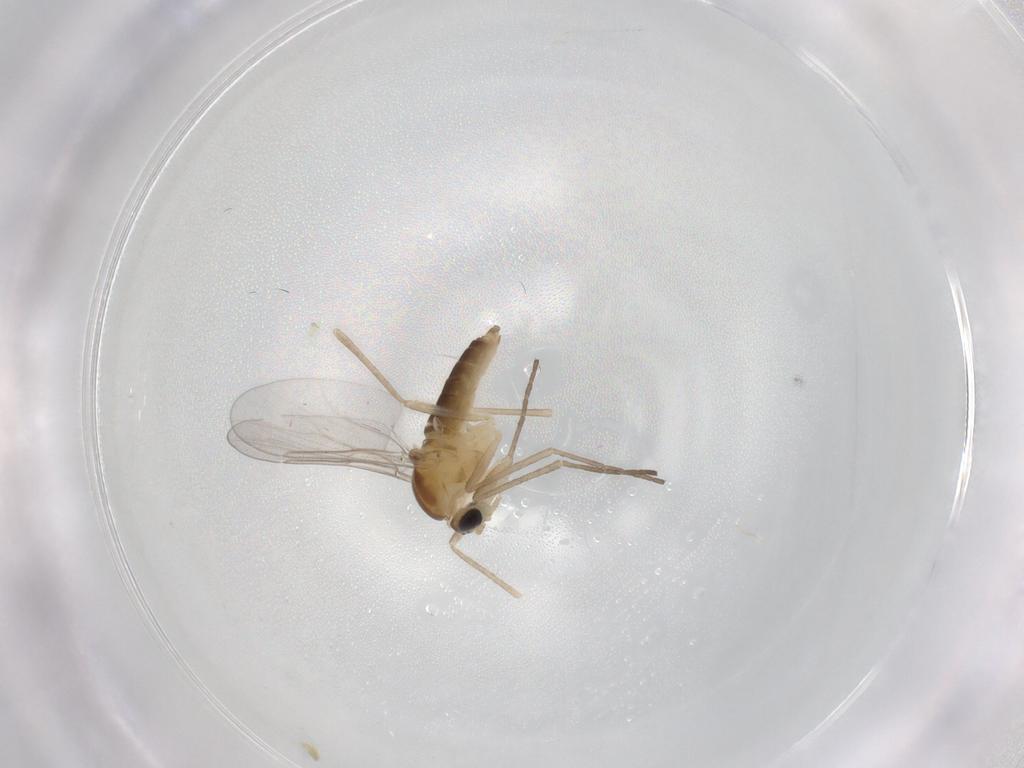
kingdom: Animalia
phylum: Arthropoda
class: Insecta
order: Diptera
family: Cecidomyiidae
